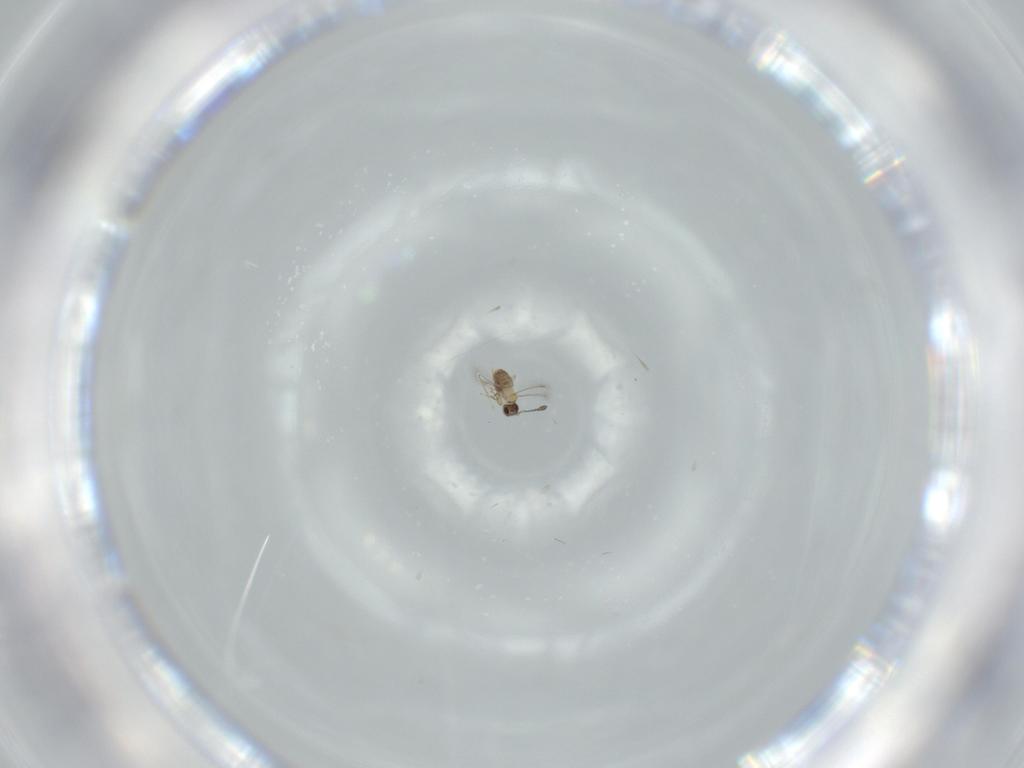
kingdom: Animalia
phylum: Arthropoda
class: Insecta
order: Hymenoptera
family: Mymaridae
